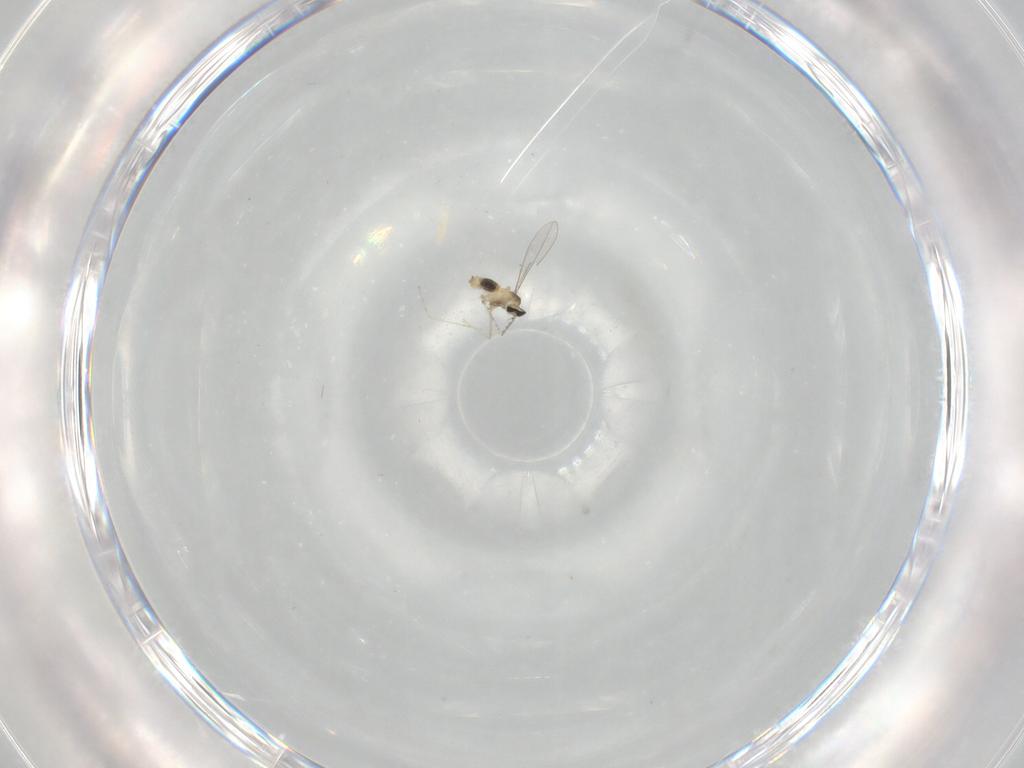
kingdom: Animalia
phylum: Arthropoda
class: Insecta
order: Diptera
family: Cecidomyiidae
